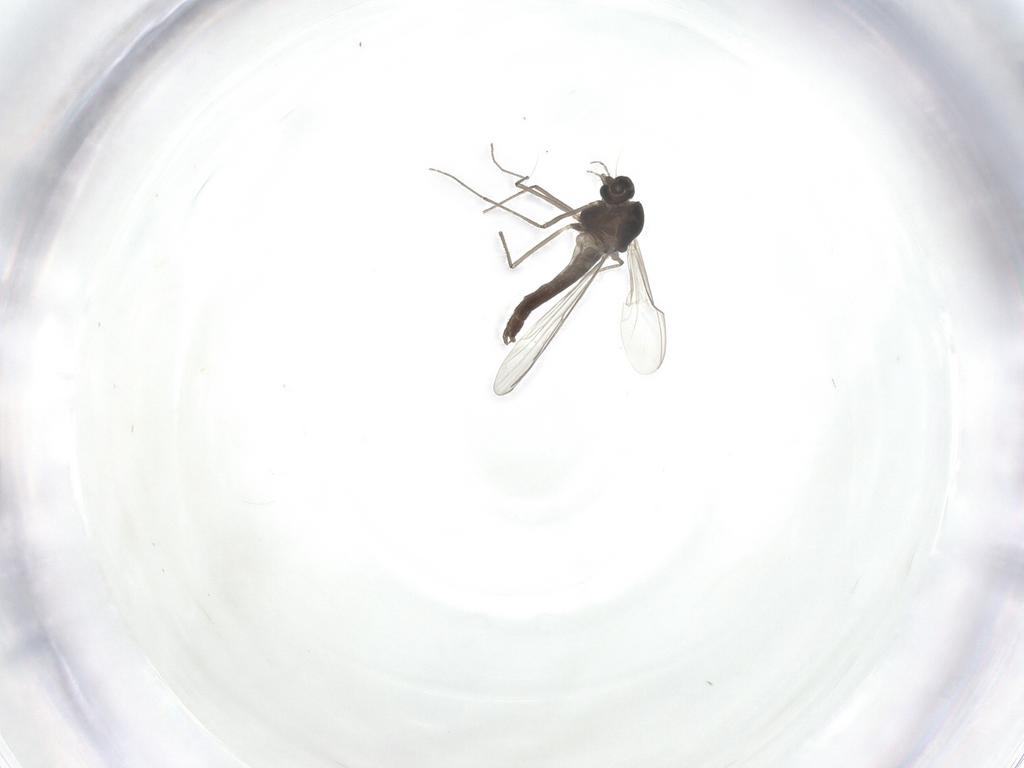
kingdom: Animalia
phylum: Arthropoda
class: Insecta
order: Diptera
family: Chironomidae
